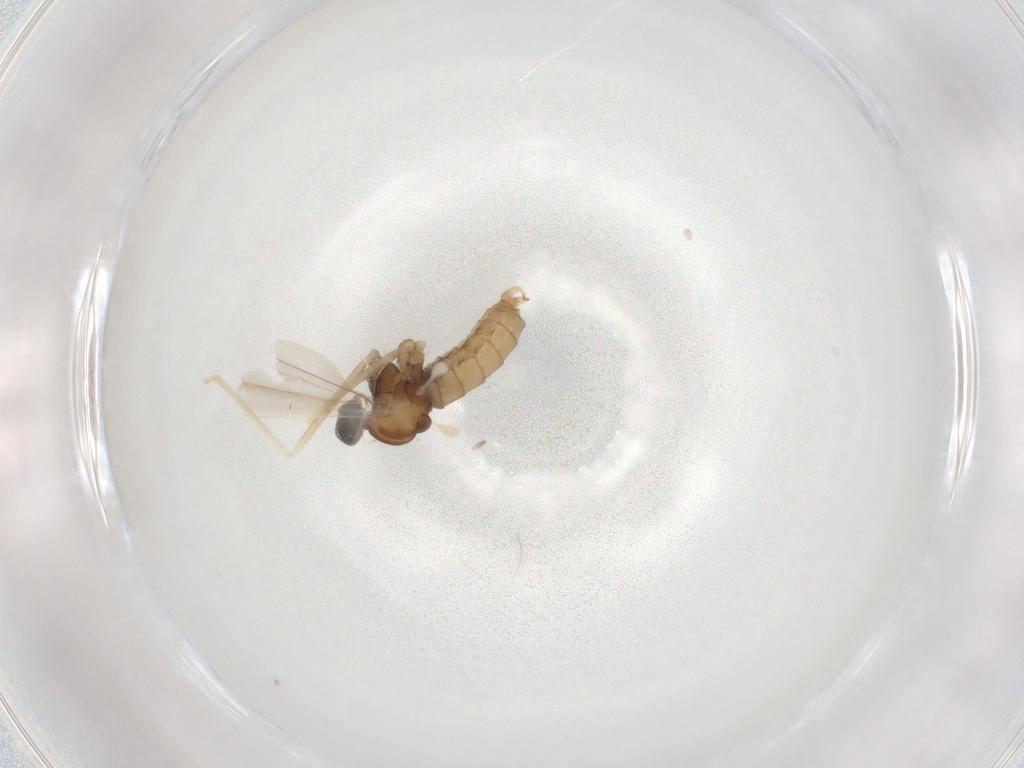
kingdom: Animalia
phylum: Arthropoda
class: Insecta
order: Diptera
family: Cecidomyiidae
